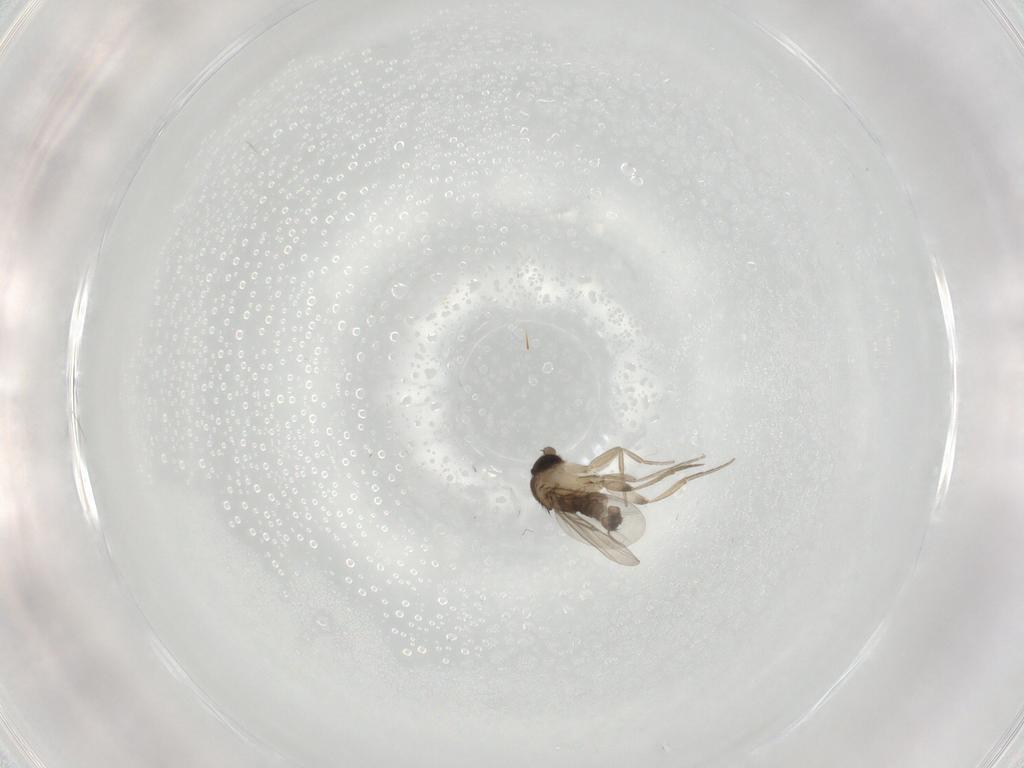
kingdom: Animalia
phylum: Arthropoda
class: Insecta
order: Diptera
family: Phoridae
